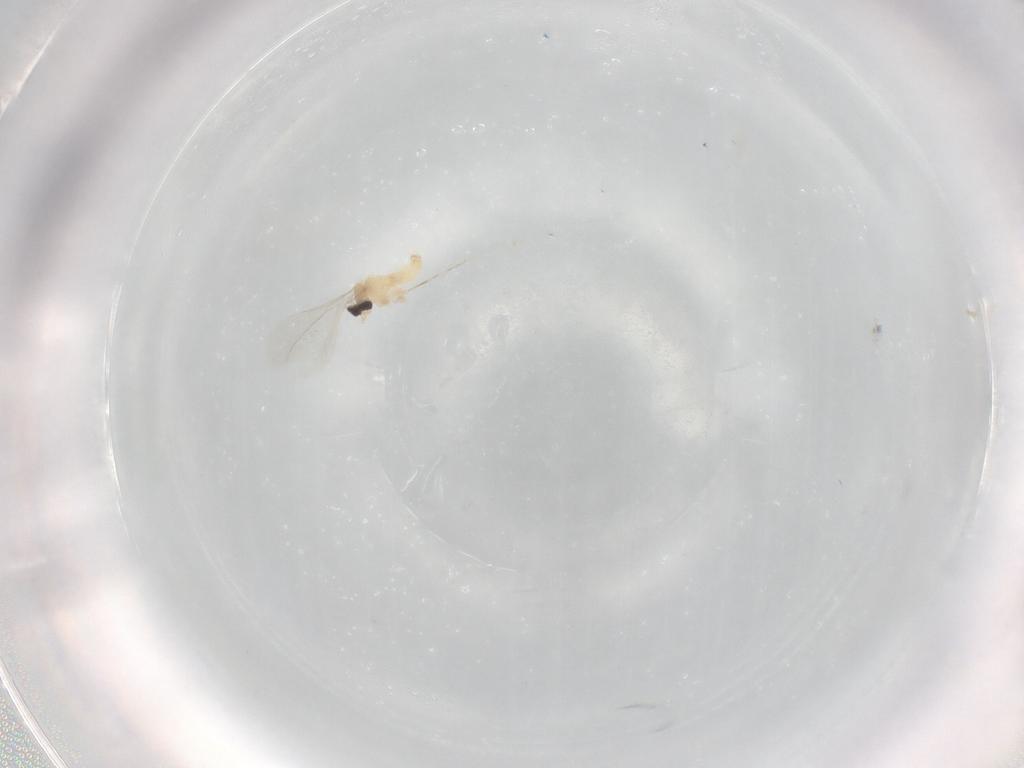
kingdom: Animalia
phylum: Arthropoda
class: Insecta
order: Diptera
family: Cecidomyiidae
